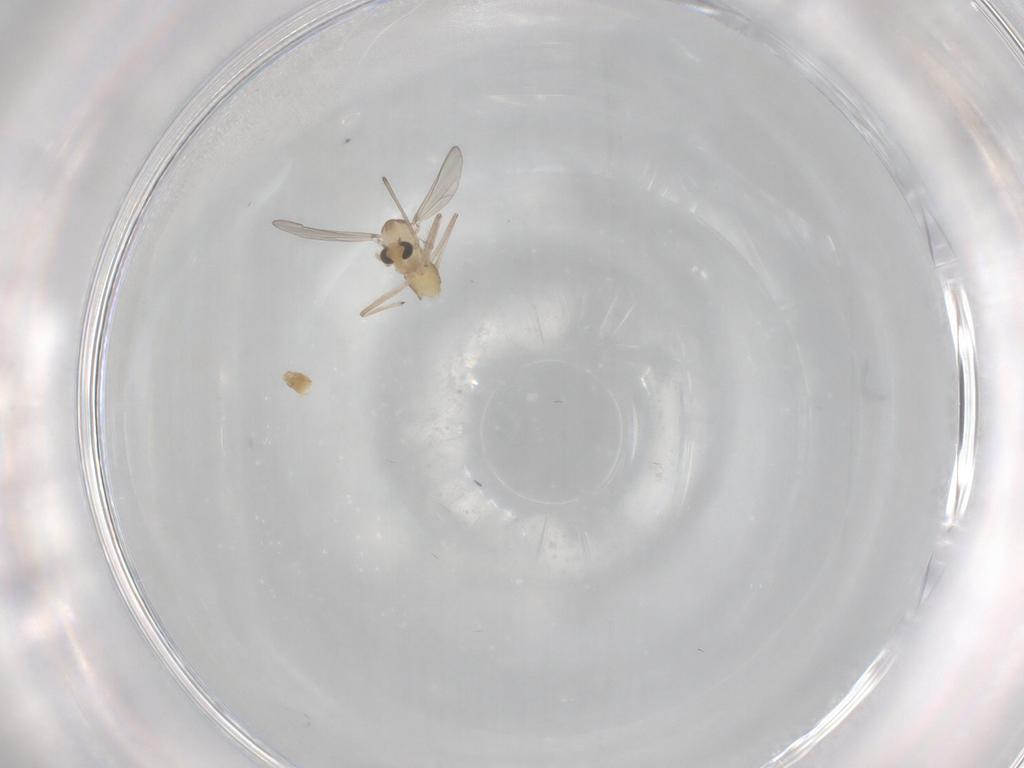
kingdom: Animalia
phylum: Arthropoda
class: Insecta
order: Diptera
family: Chironomidae
